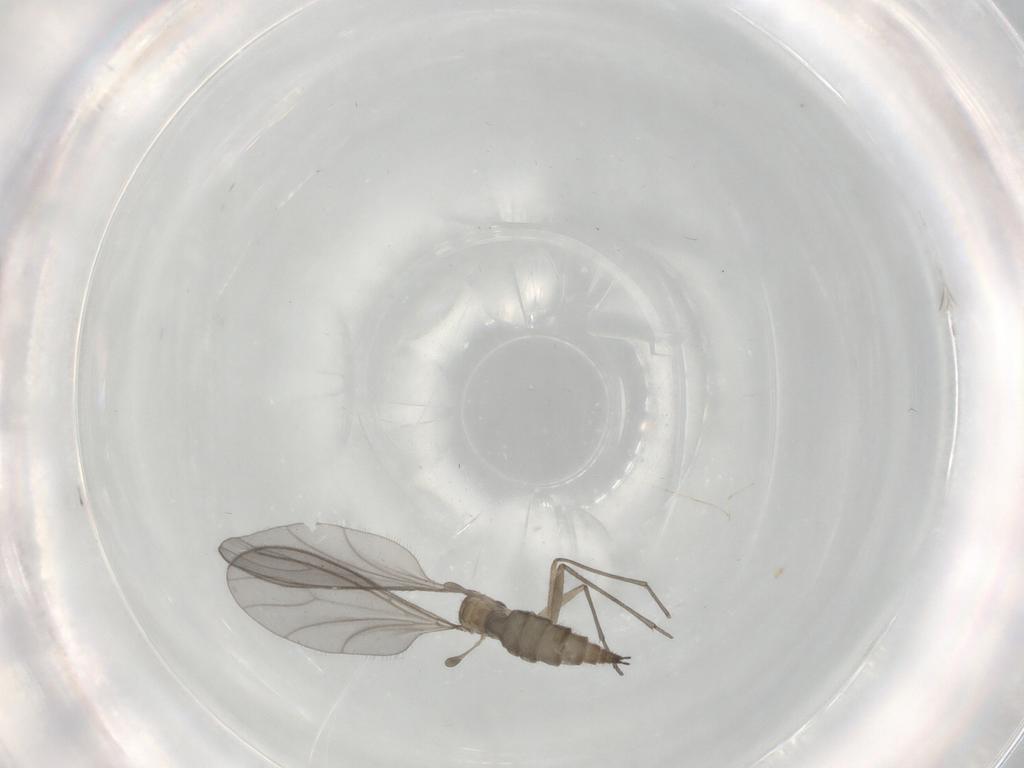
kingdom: Animalia
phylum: Arthropoda
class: Insecta
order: Diptera
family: Sciaridae
